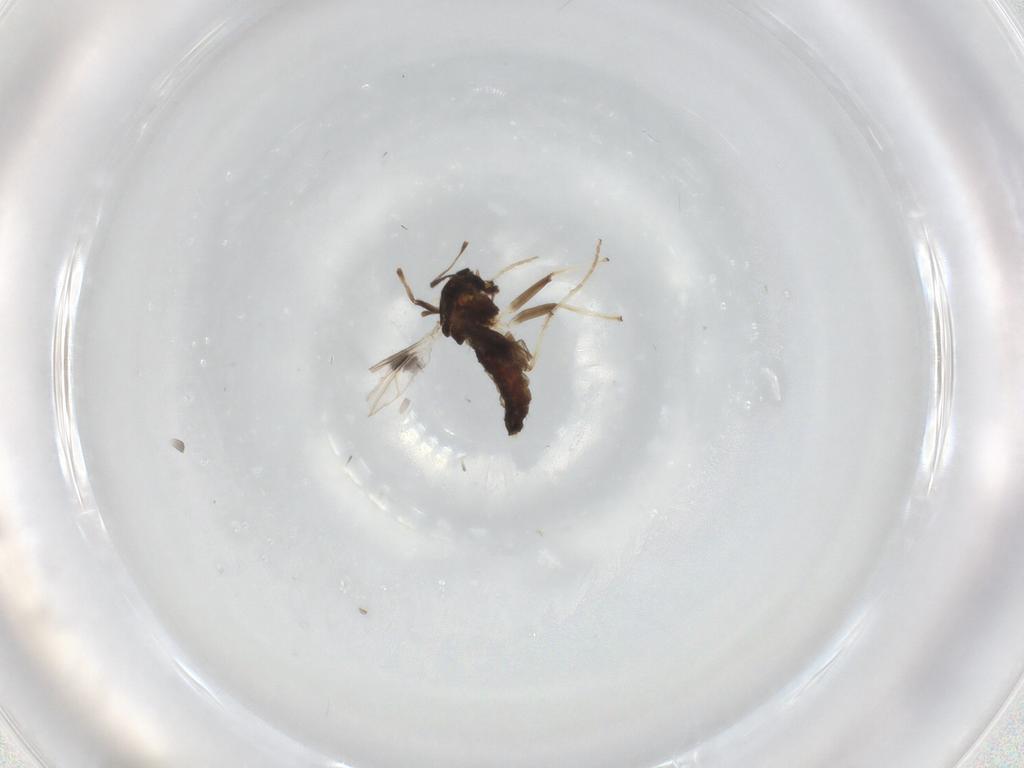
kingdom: Animalia
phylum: Arthropoda
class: Insecta
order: Diptera
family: Chironomidae
